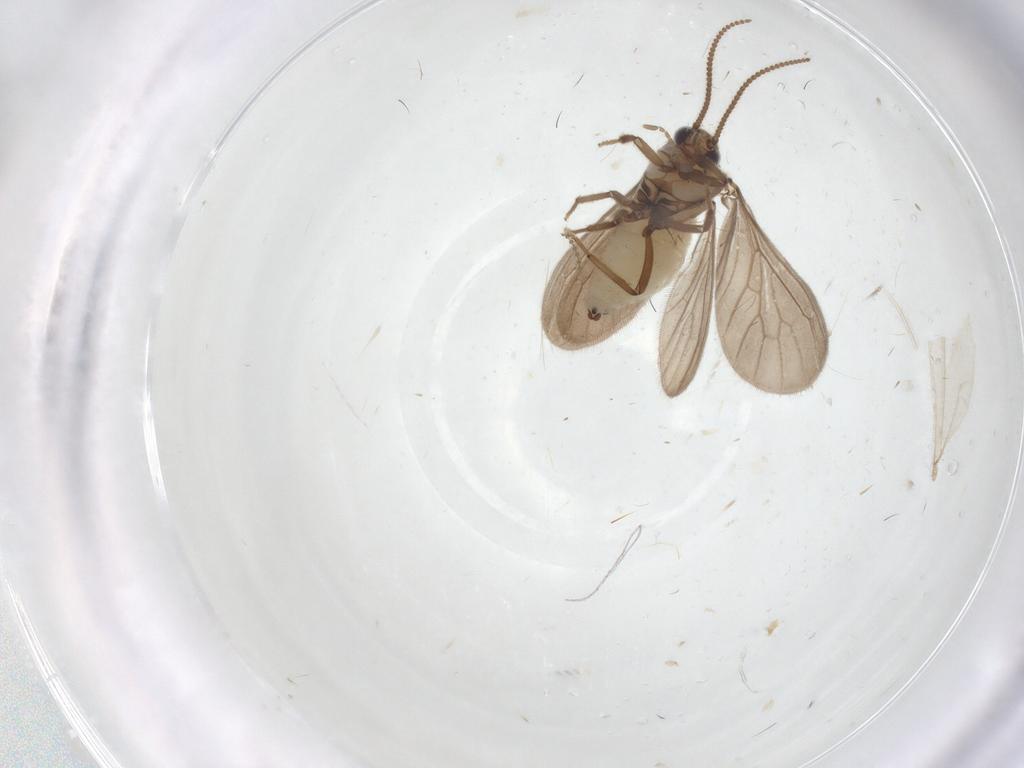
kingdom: Animalia
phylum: Arthropoda
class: Insecta
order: Neuroptera
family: Coniopterygidae
